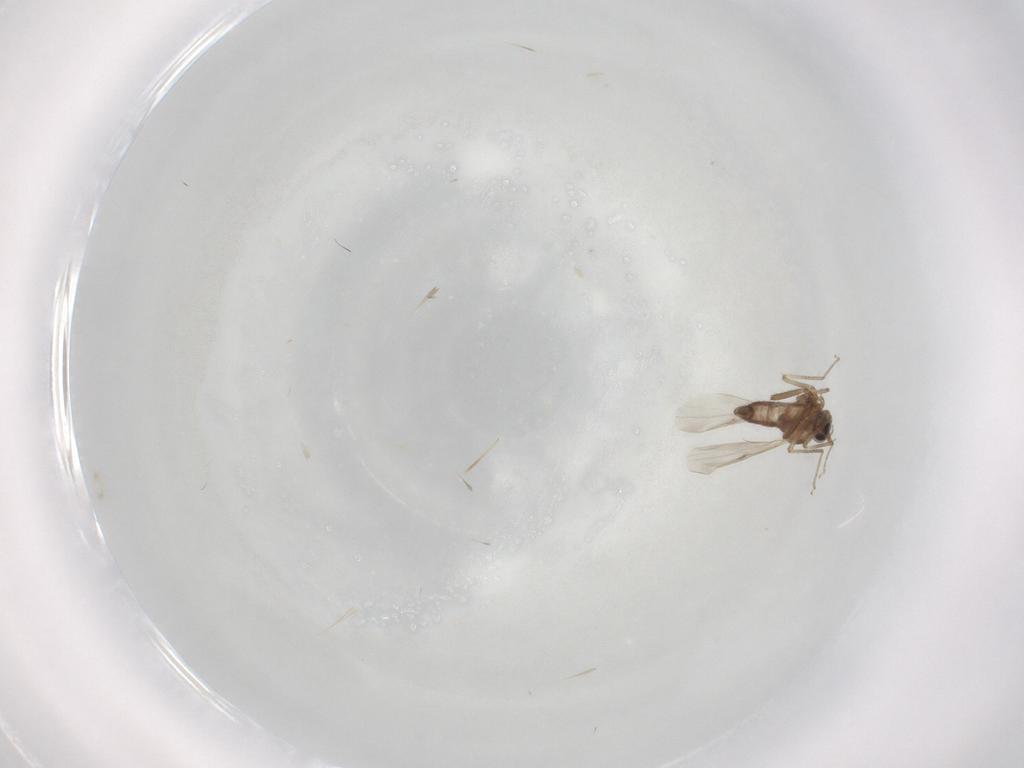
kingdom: Animalia
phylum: Arthropoda
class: Insecta
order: Diptera
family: Ceratopogonidae
